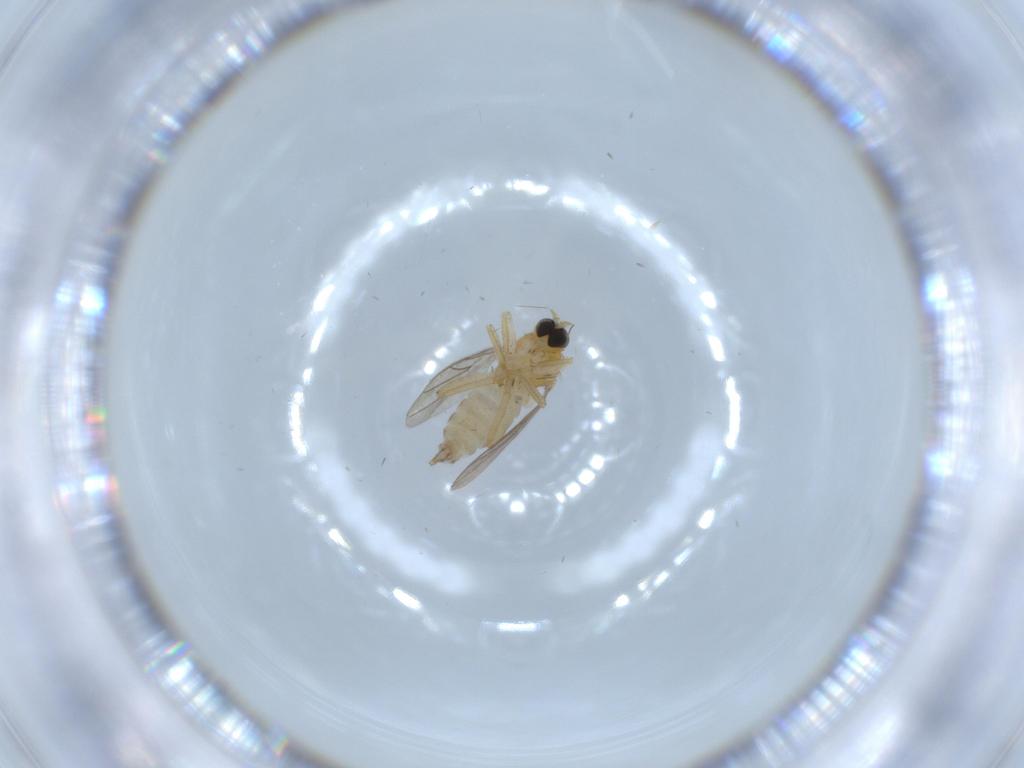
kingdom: Animalia
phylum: Arthropoda
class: Insecta
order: Diptera
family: Hybotidae
